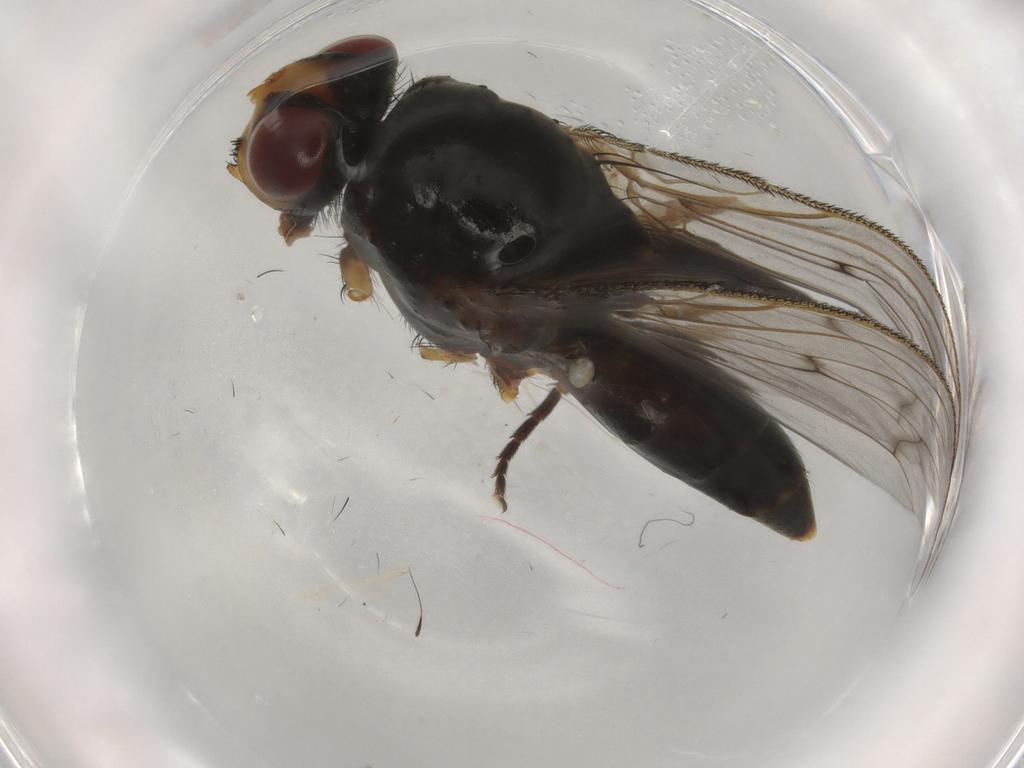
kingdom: Animalia
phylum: Arthropoda
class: Insecta
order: Diptera
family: Anthomyiidae
